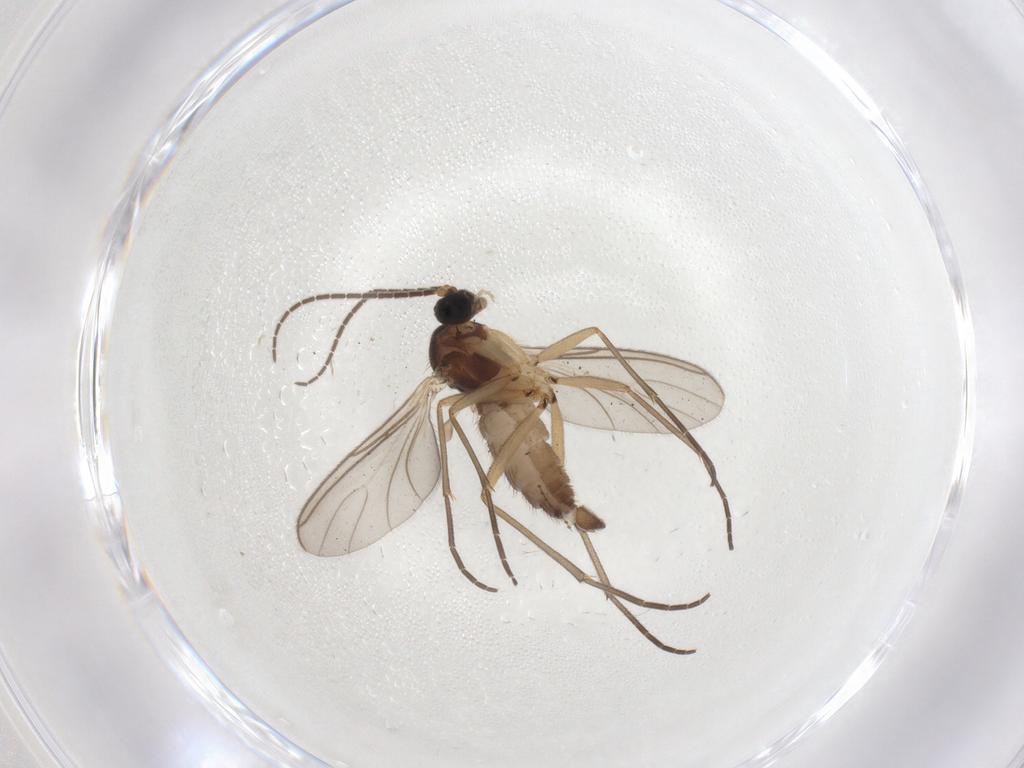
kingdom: Animalia
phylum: Arthropoda
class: Insecta
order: Diptera
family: Sciaridae
